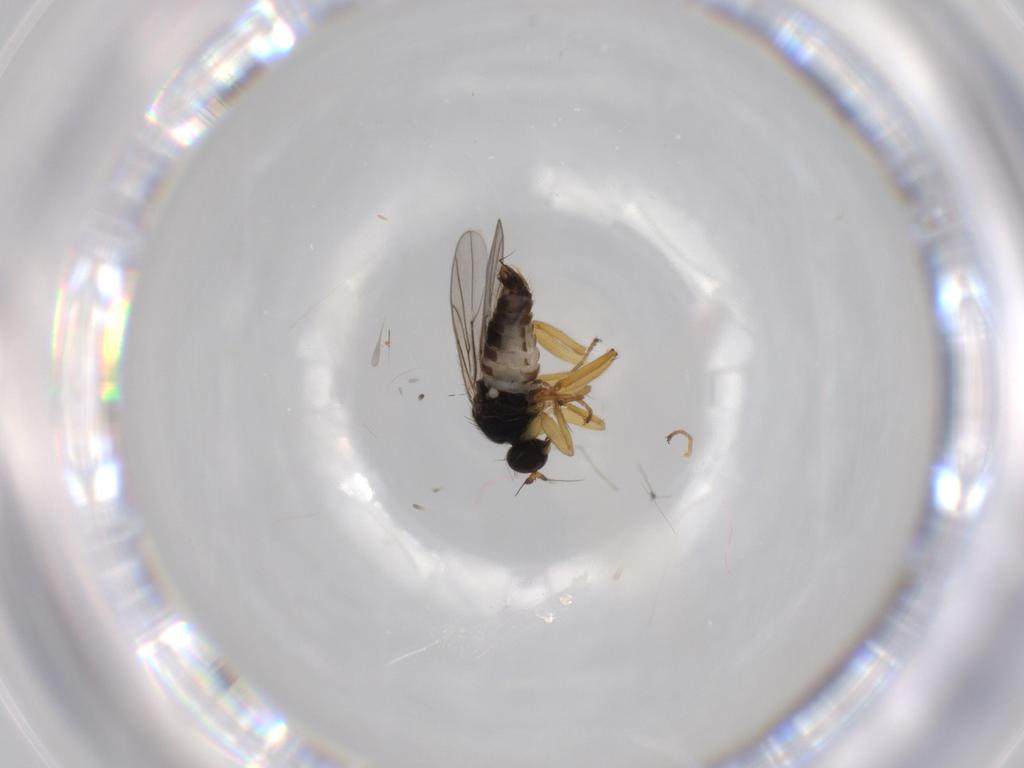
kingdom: Animalia
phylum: Arthropoda
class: Insecta
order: Diptera
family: Hybotidae
